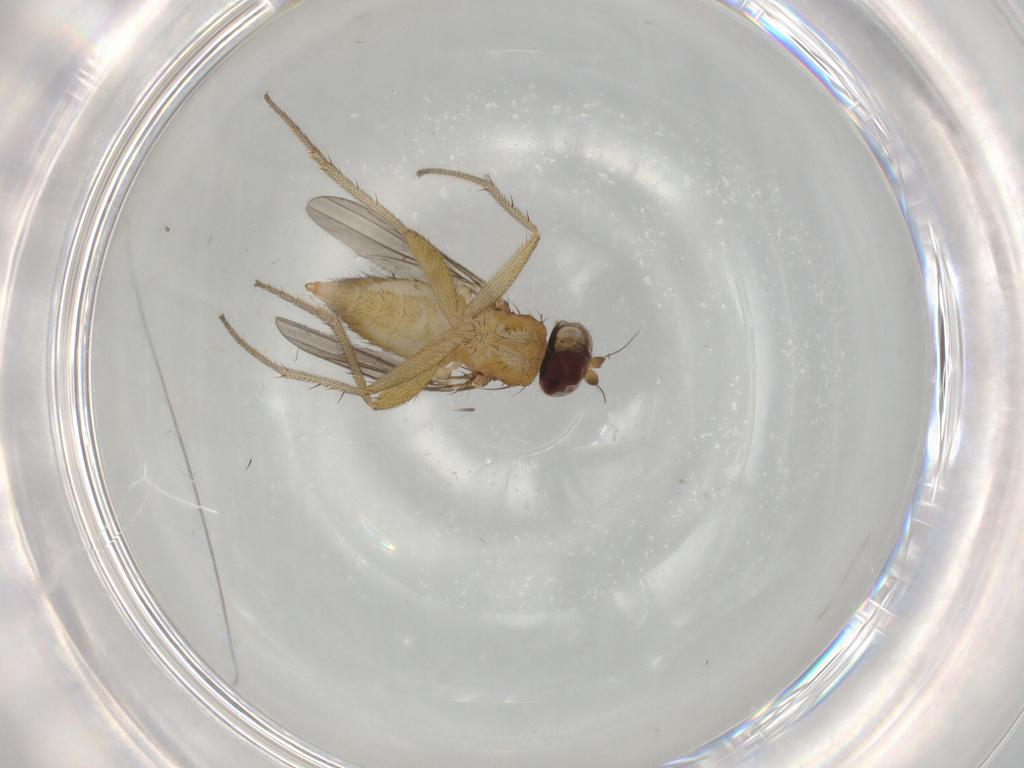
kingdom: Animalia
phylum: Arthropoda
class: Insecta
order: Diptera
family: Dolichopodidae
